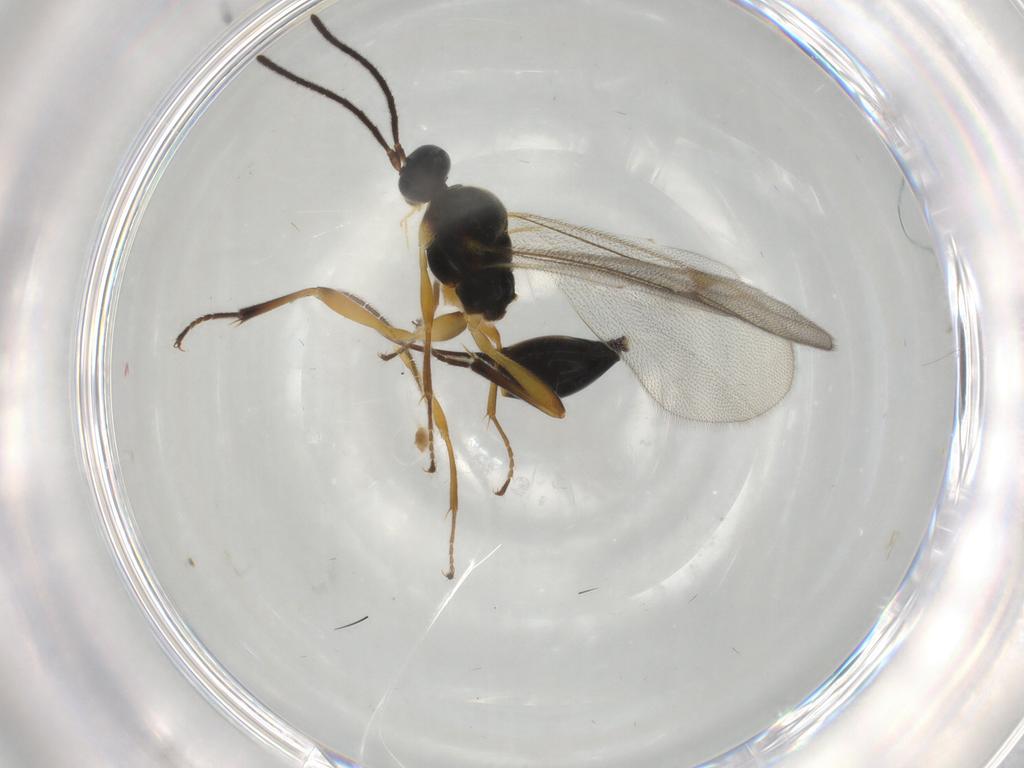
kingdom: Animalia
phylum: Arthropoda
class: Insecta
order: Hymenoptera
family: Proctotrupidae
